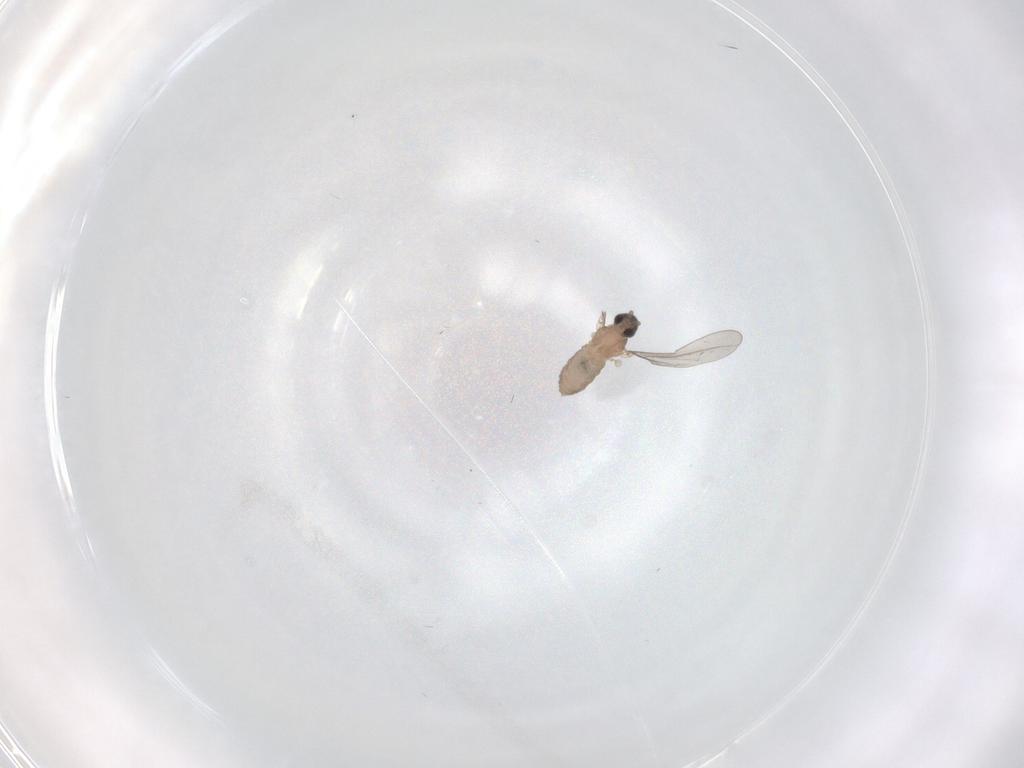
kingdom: Animalia
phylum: Arthropoda
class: Insecta
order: Diptera
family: Cecidomyiidae
